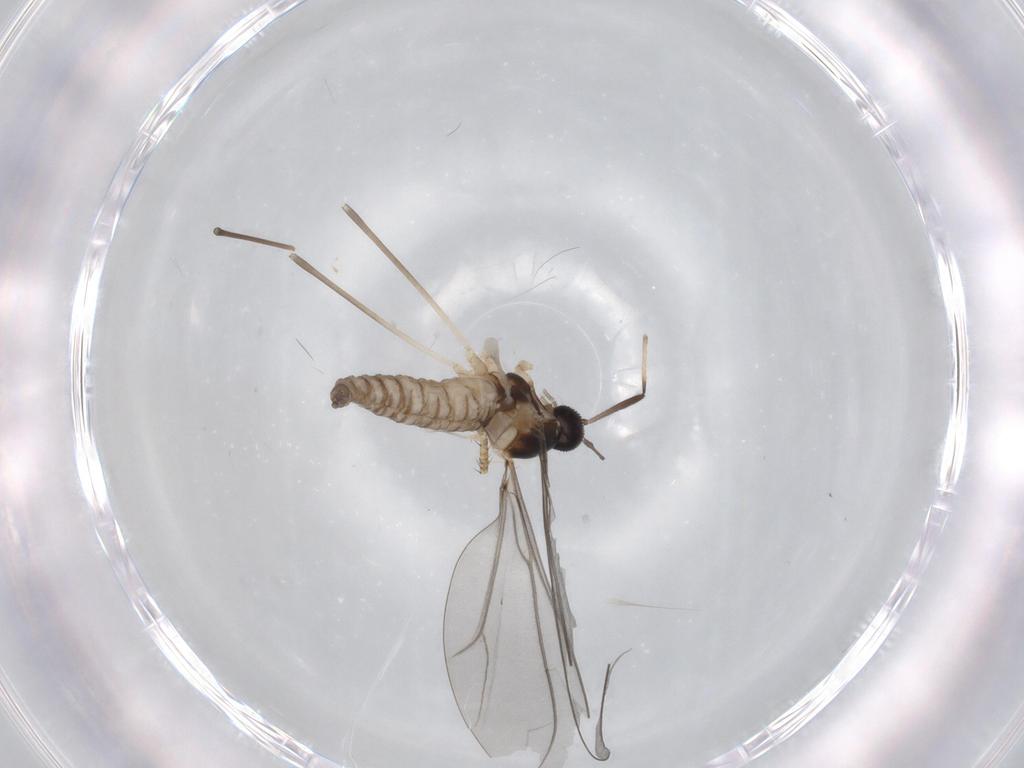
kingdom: Animalia
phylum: Arthropoda
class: Insecta
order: Diptera
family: Cecidomyiidae
